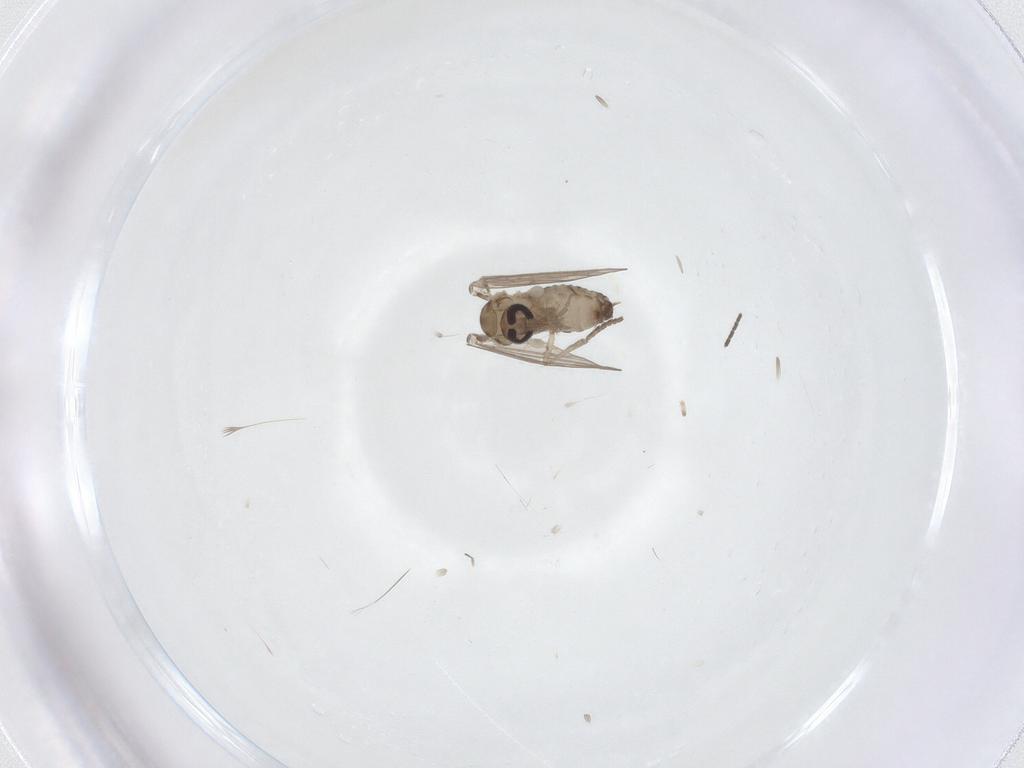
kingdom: Animalia
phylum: Arthropoda
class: Insecta
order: Diptera
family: Psychodidae
